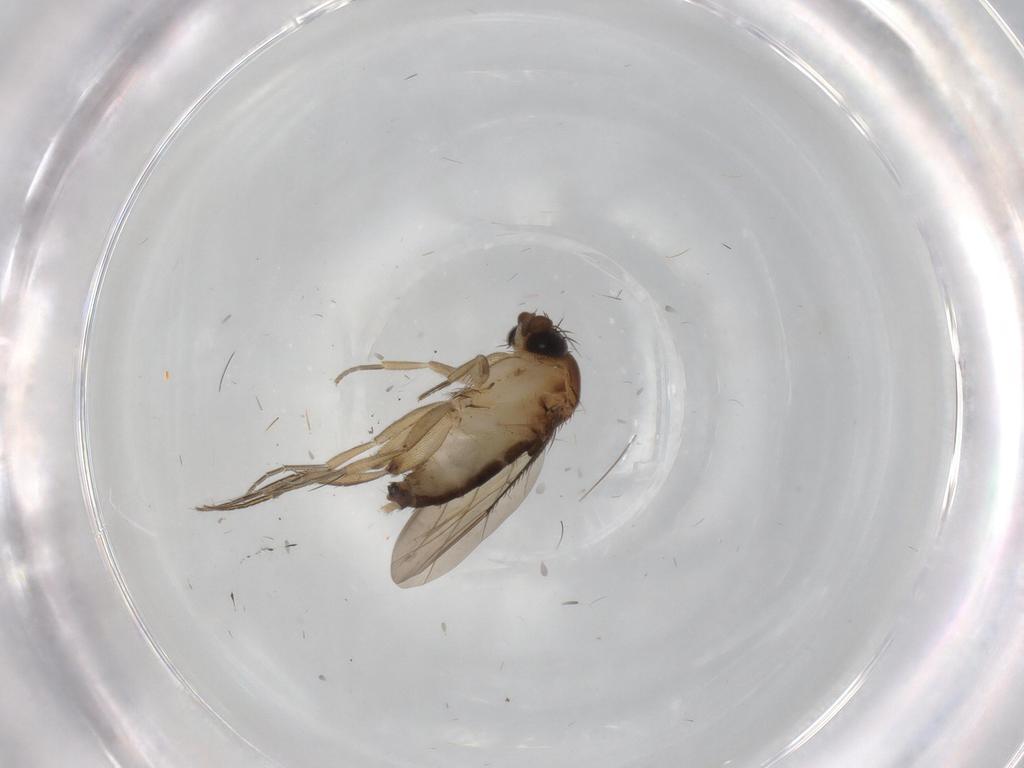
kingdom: Animalia
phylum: Arthropoda
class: Insecta
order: Diptera
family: Phoridae
